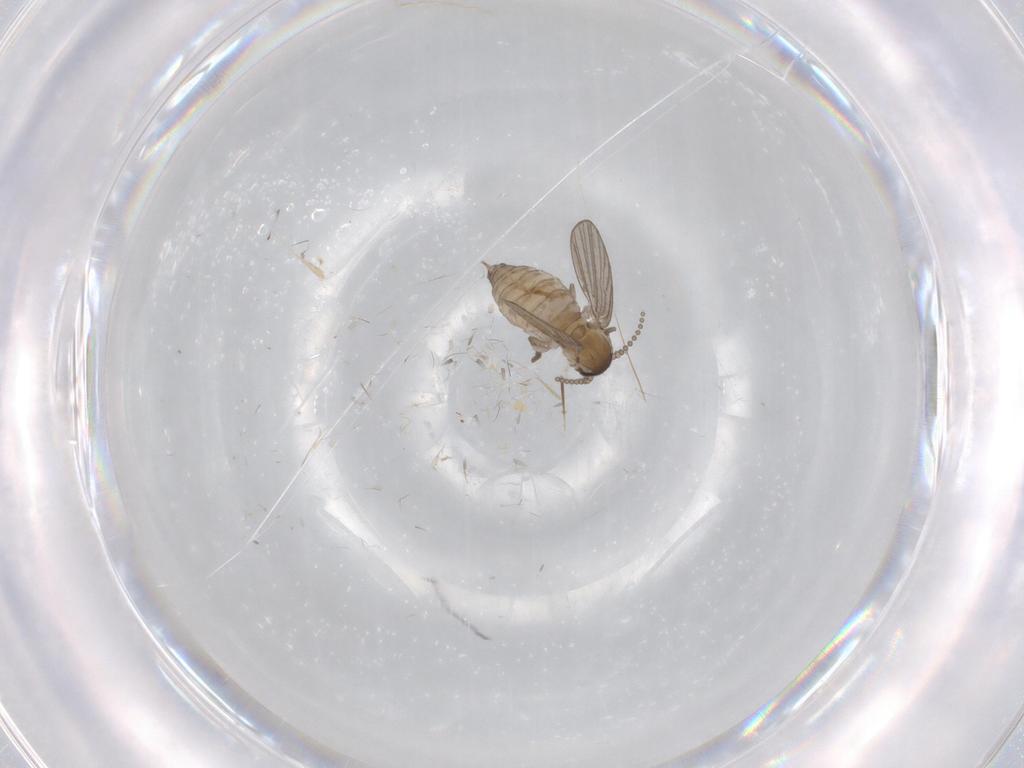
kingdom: Animalia
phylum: Arthropoda
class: Insecta
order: Diptera
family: Psychodidae
